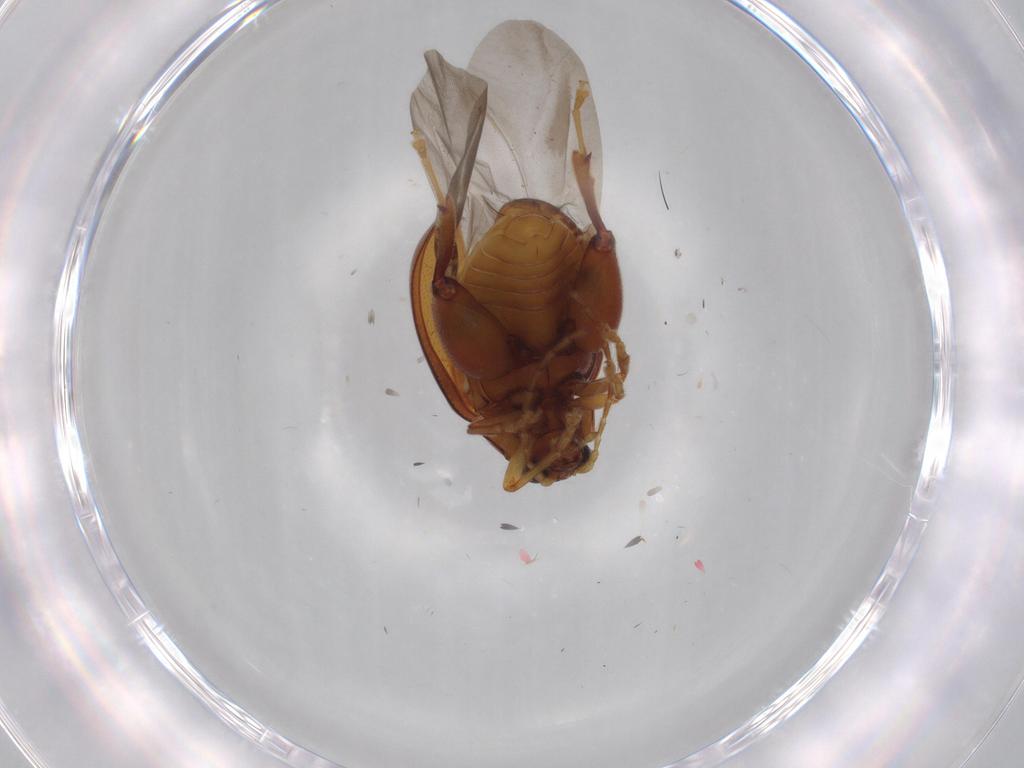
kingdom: Animalia
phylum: Arthropoda
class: Insecta
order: Coleoptera
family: Chrysomelidae
